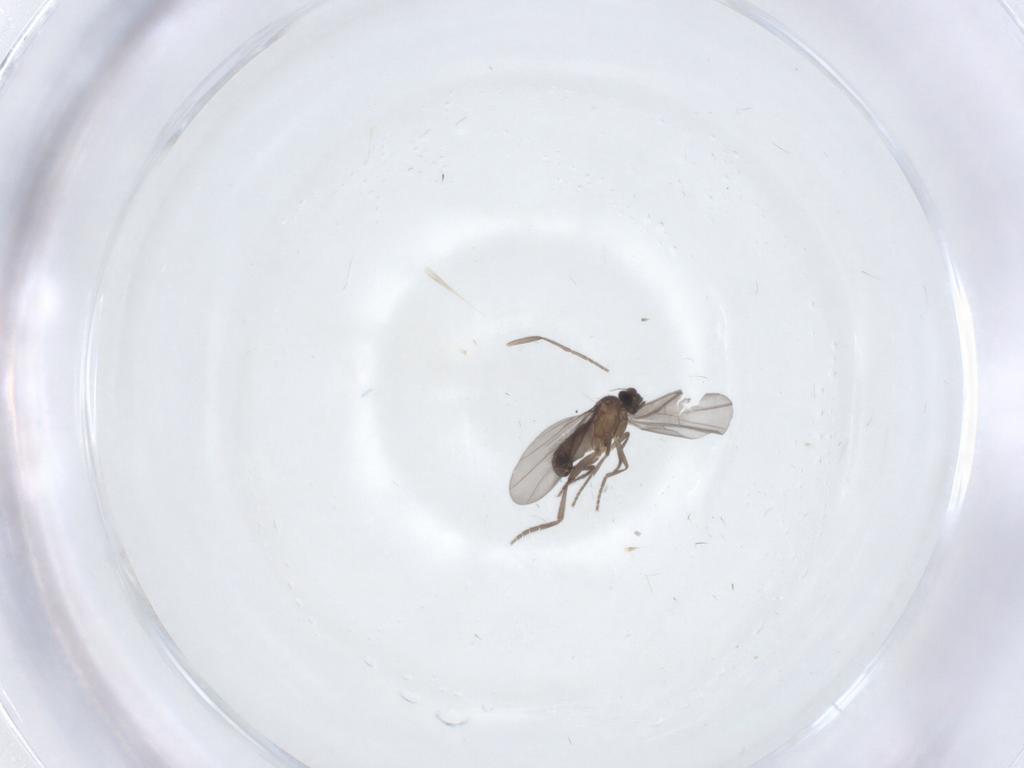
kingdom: Animalia
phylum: Arthropoda
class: Insecta
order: Diptera
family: Phoridae
